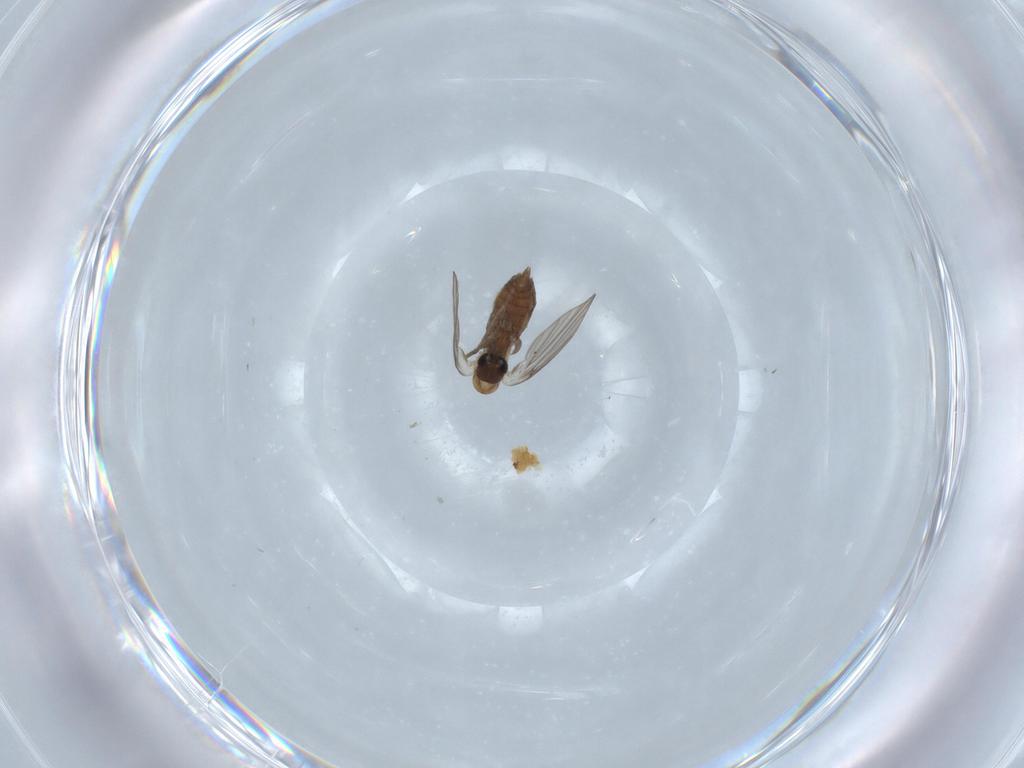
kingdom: Animalia
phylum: Arthropoda
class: Insecta
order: Diptera
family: Psychodidae
